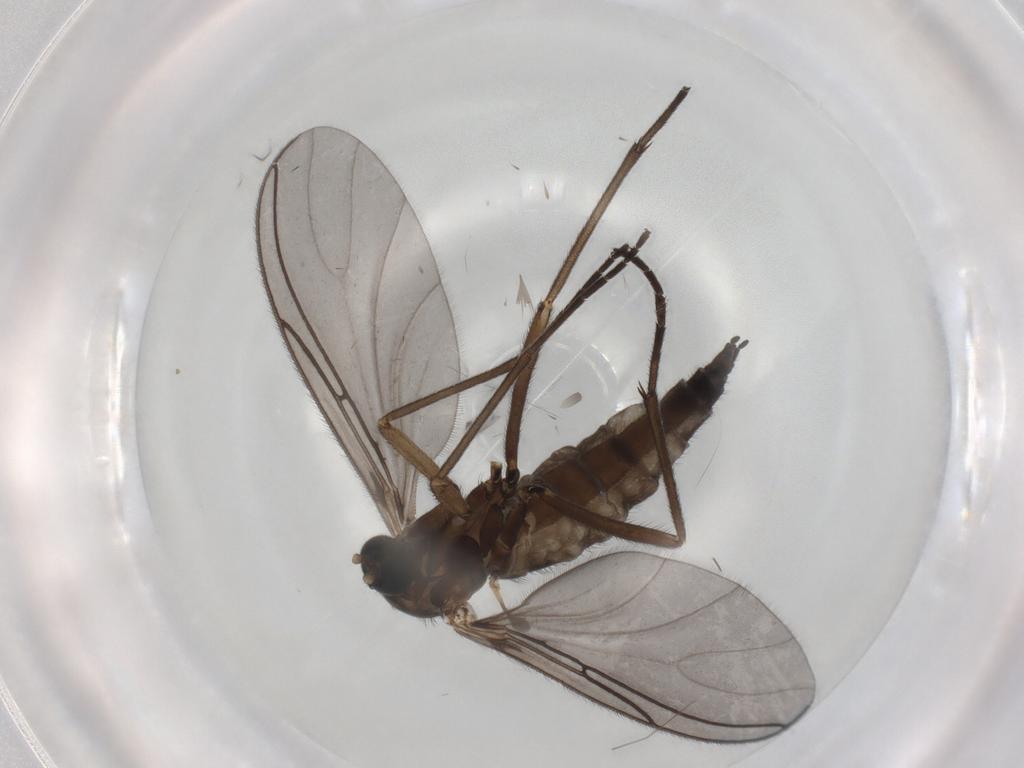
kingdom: Animalia
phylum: Arthropoda
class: Insecta
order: Diptera
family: Sciaridae
